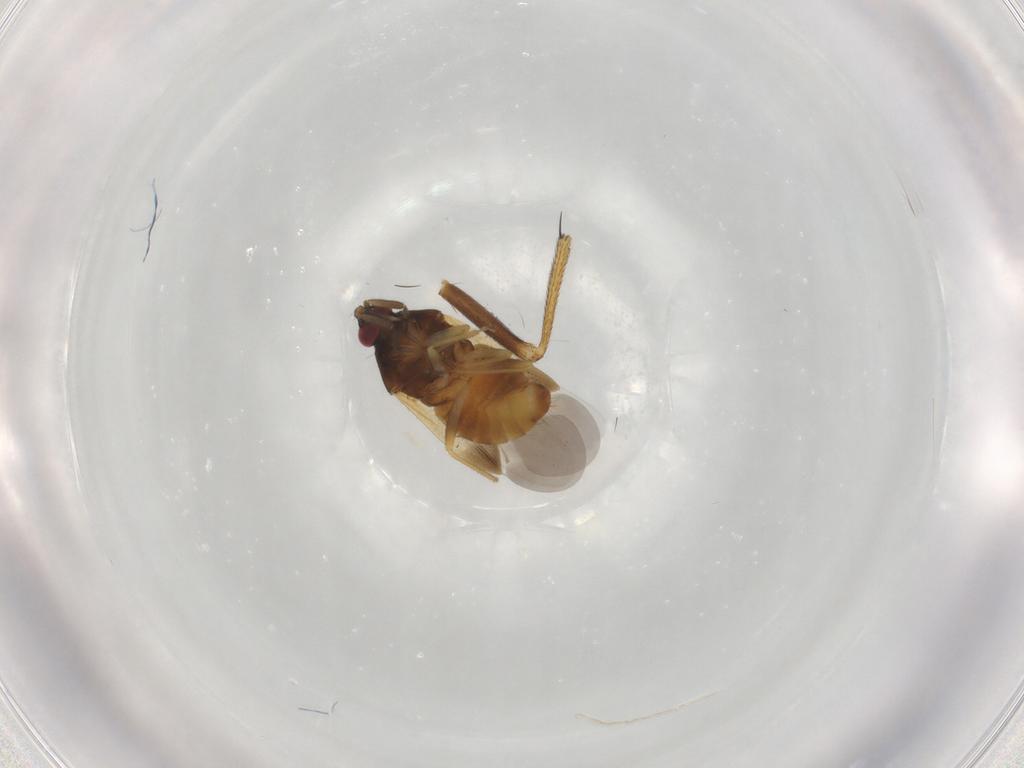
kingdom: Animalia
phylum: Arthropoda
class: Insecta
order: Hemiptera
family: Anthocoridae
